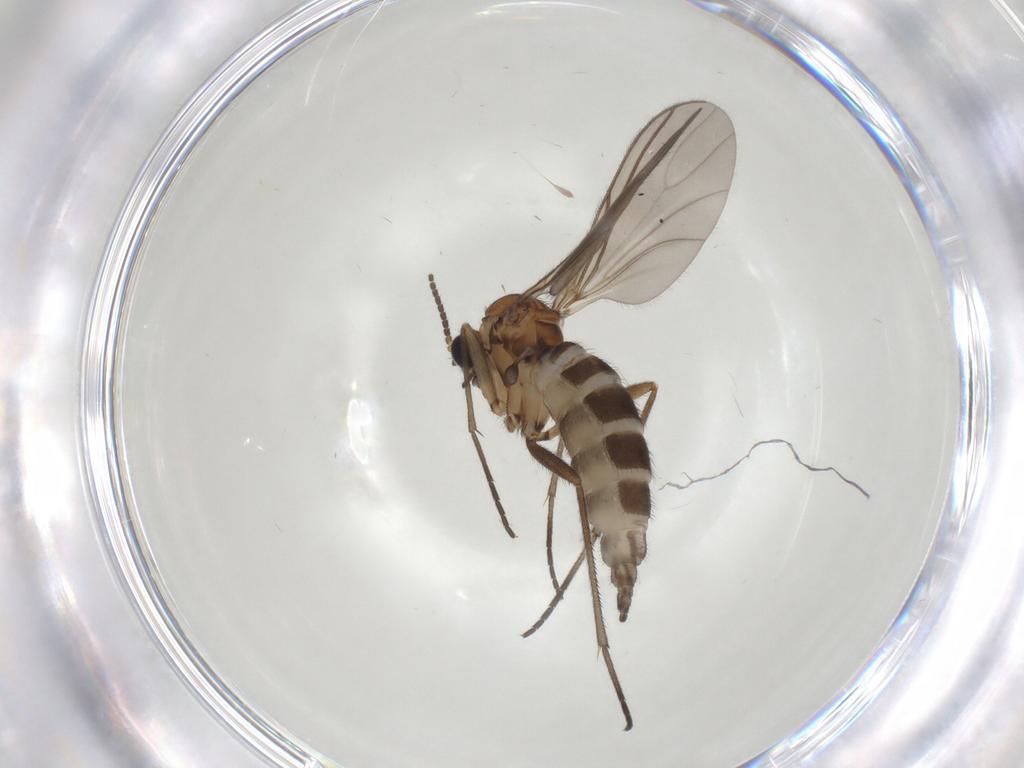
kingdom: Animalia
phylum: Arthropoda
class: Insecta
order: Diptera
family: Sciaridae
